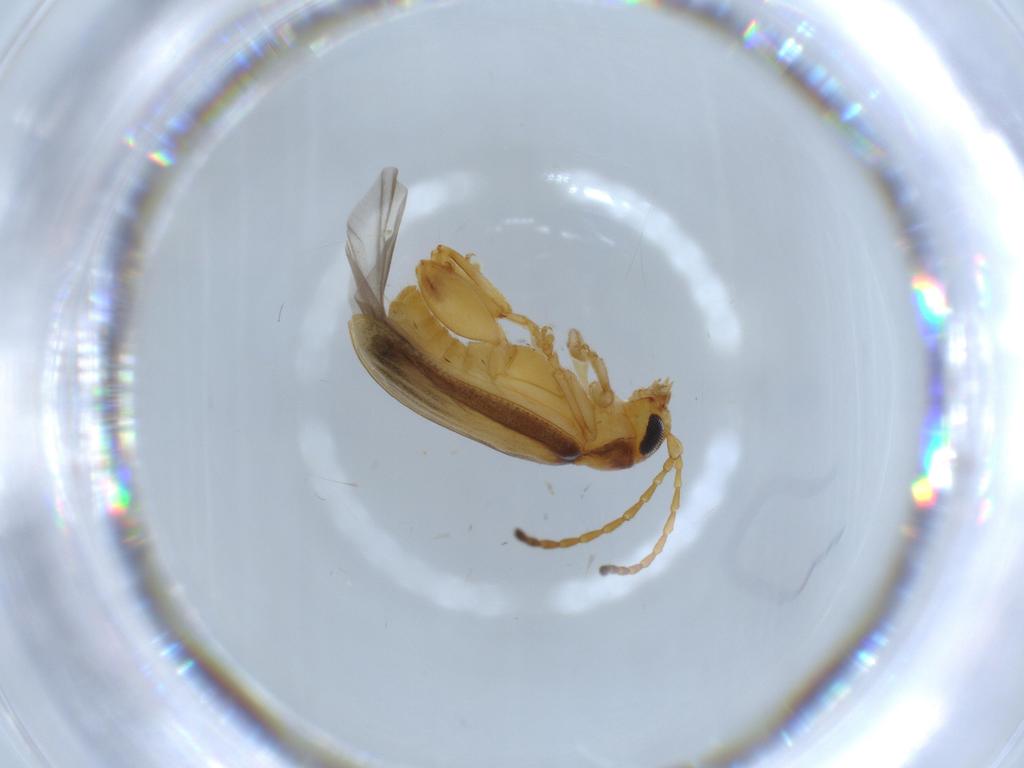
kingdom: Animalia
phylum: Arthropoda
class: Insecta
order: Coleoptera
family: Chrysomelidae
